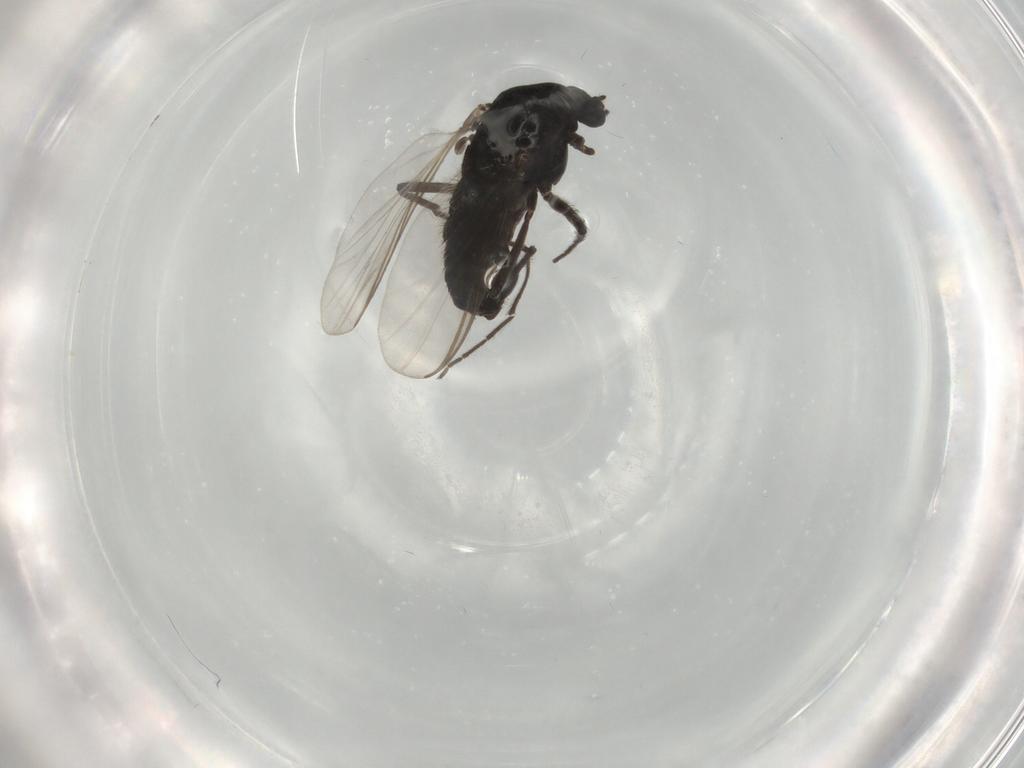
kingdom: Animalia
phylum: Arthropoda
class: Insecta
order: Diptera
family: Chironomidae
